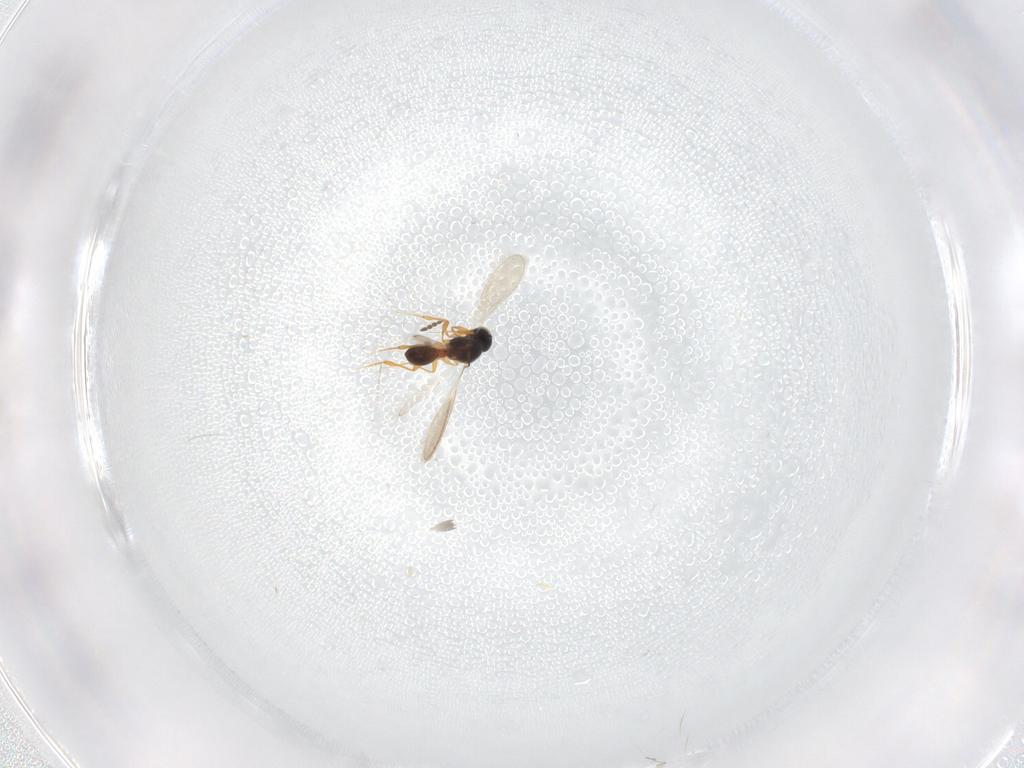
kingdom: Animalia
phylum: Arthropoda
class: Insecta
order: Hymenoptera
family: Platygastridae
